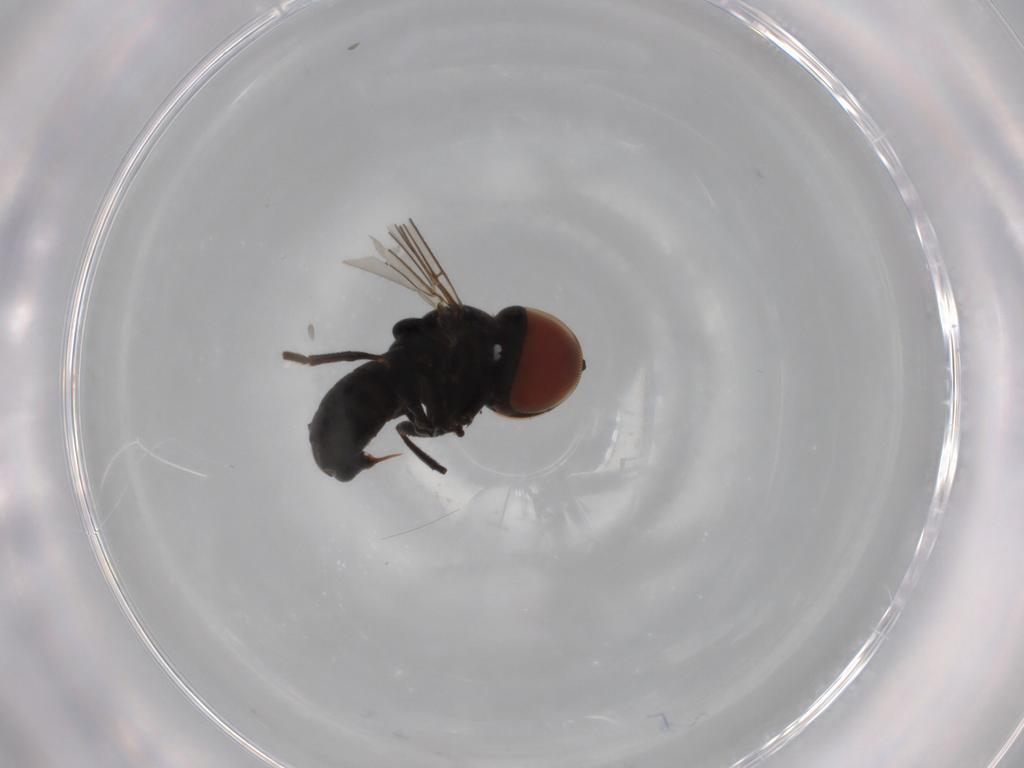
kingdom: Animalia
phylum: Arthropoda
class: Insecta
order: Diptera
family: Pipunculidae
